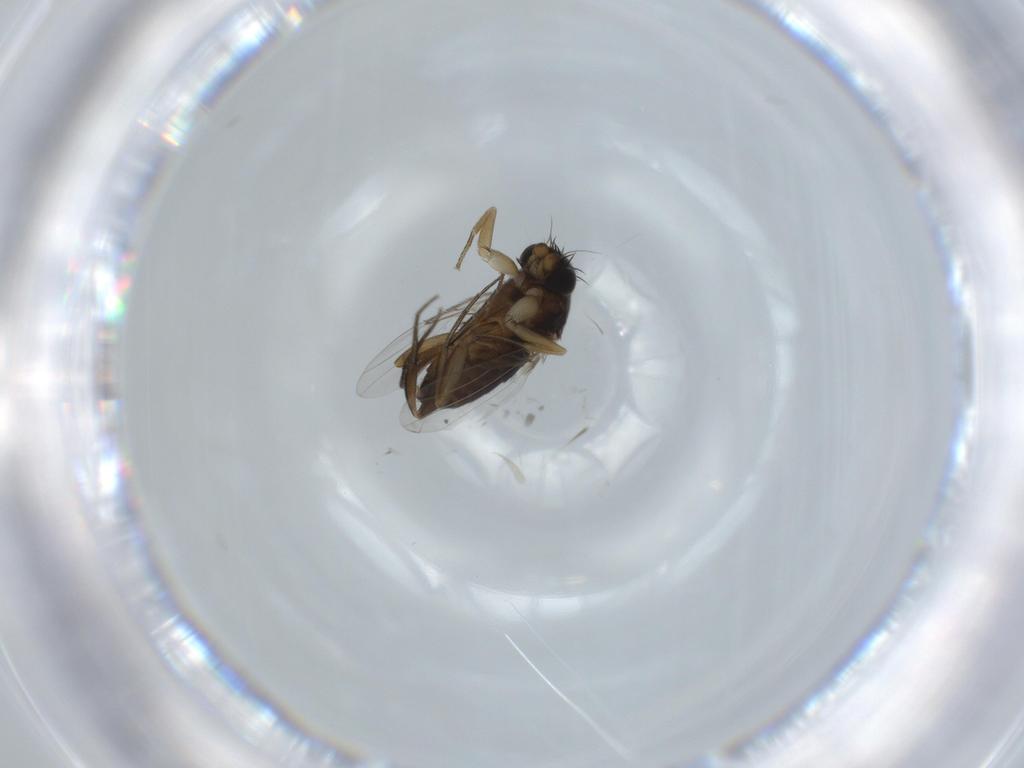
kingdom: Animalia
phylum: Arthropoda
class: Insecta
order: Diptera
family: Phoridae
